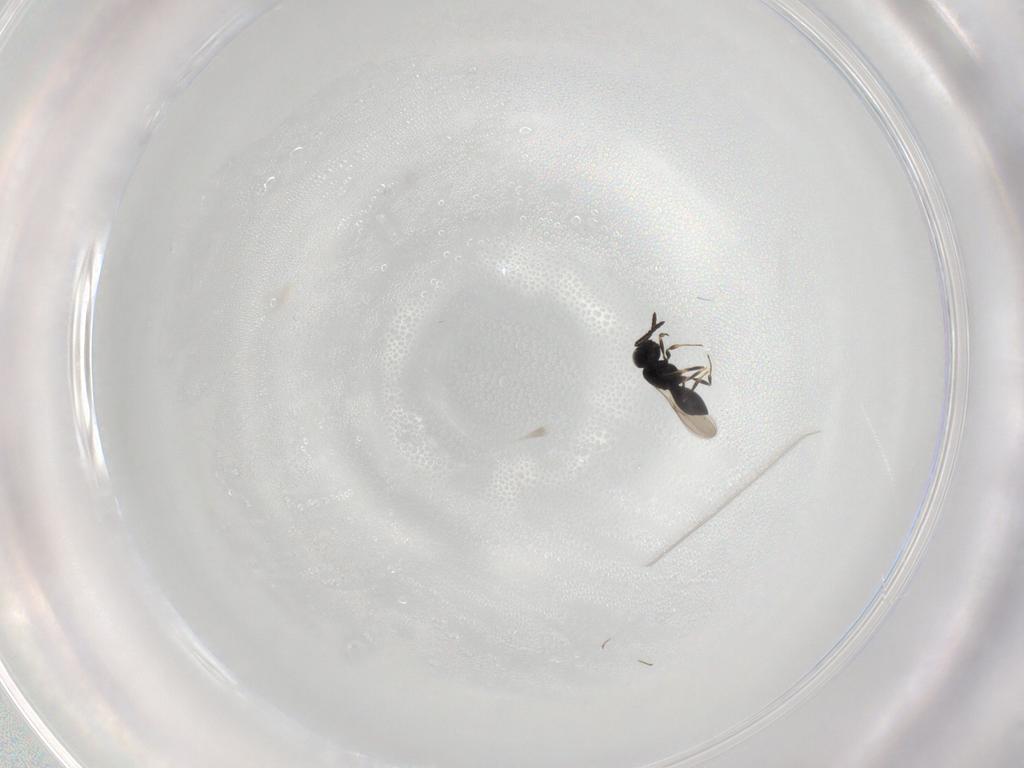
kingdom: Animalia
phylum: Arthropoda
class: Insecta
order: Hymenoptera
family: Scelionidae
